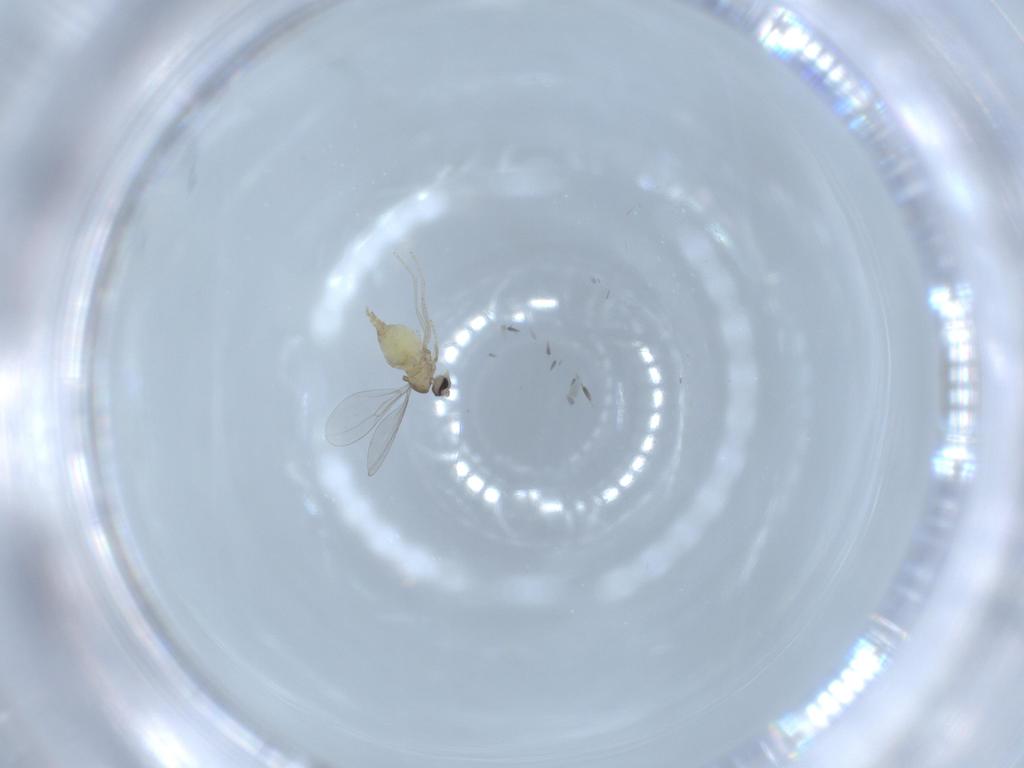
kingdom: Animalia
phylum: Arthropoda
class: Insecta
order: Diptera
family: Cecidomyiidae
